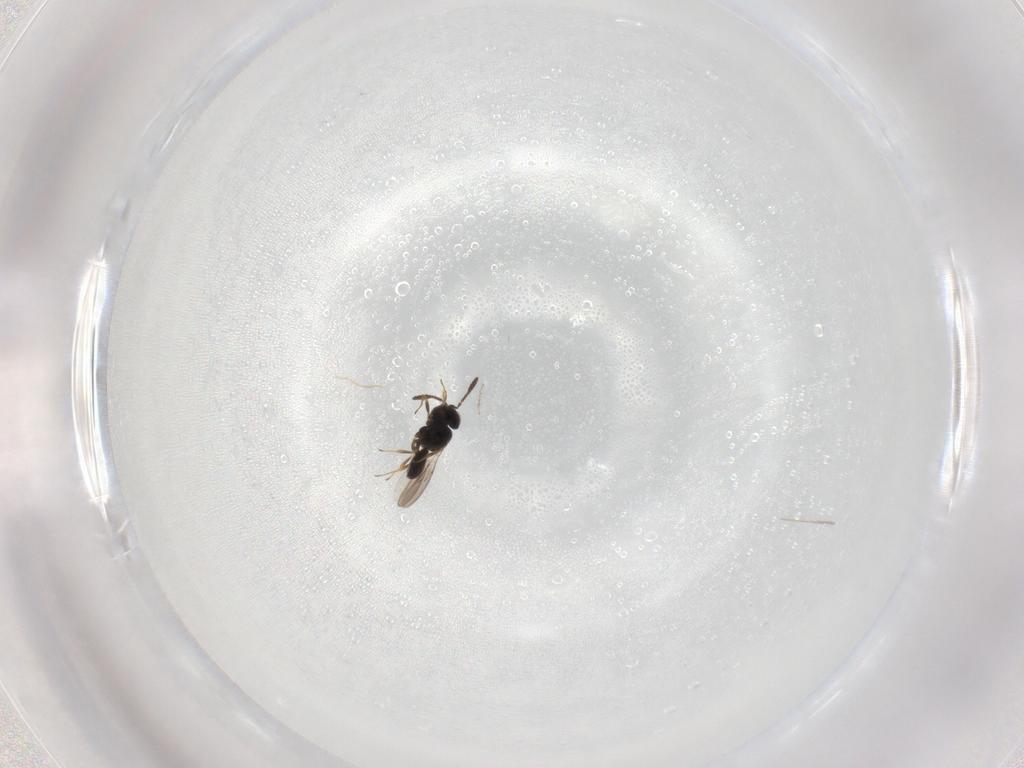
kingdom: Animalia
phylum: Arthropoda
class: Insecta
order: Hymenoptera
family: Scelionidae
